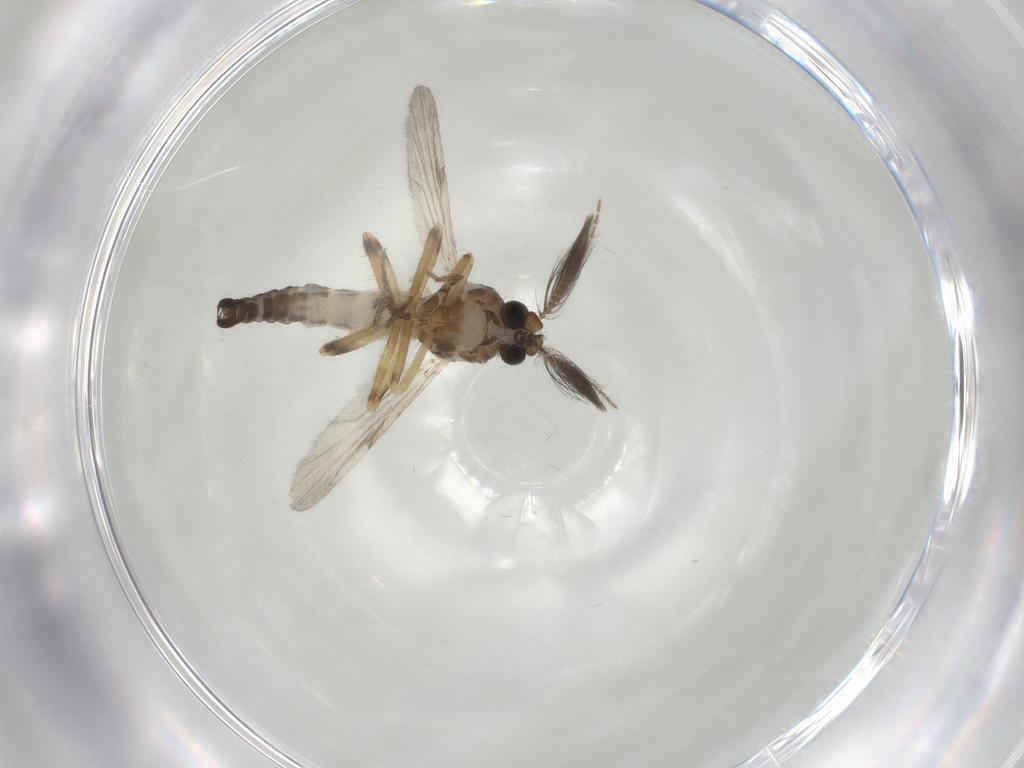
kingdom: Animalia
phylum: Arthropoda
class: Insecta
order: Diptera
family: Ceratopogonidae
